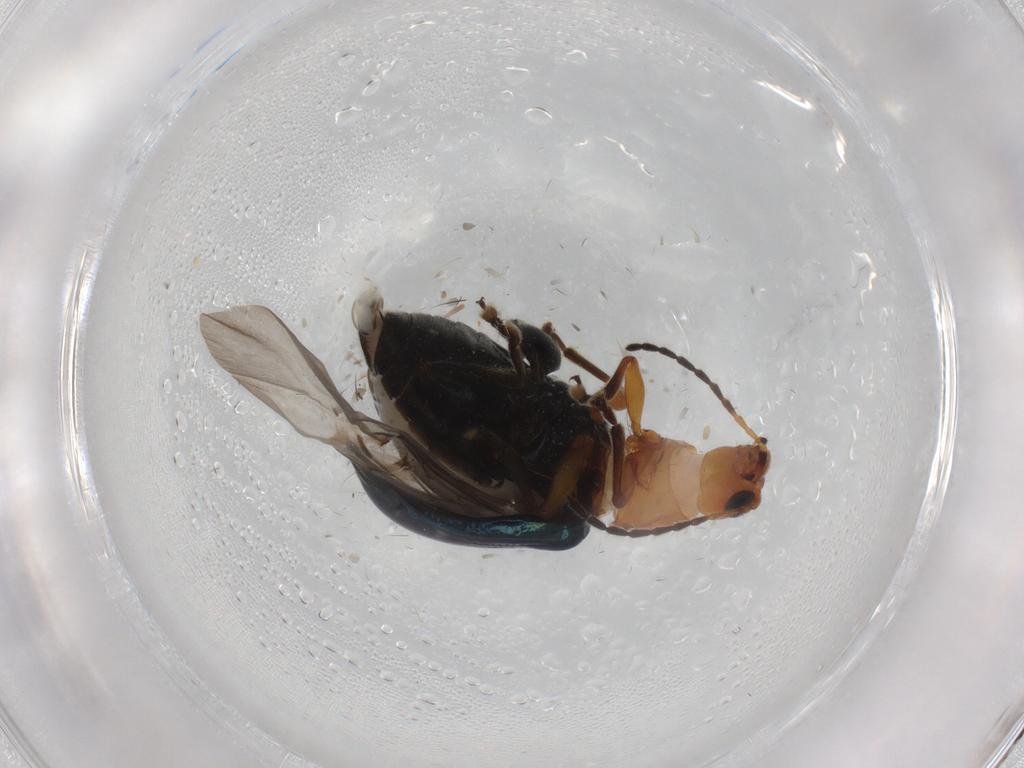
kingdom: Animalia
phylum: Arthropoda
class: Insecta
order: Coleoptera
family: Chrysomelidae
